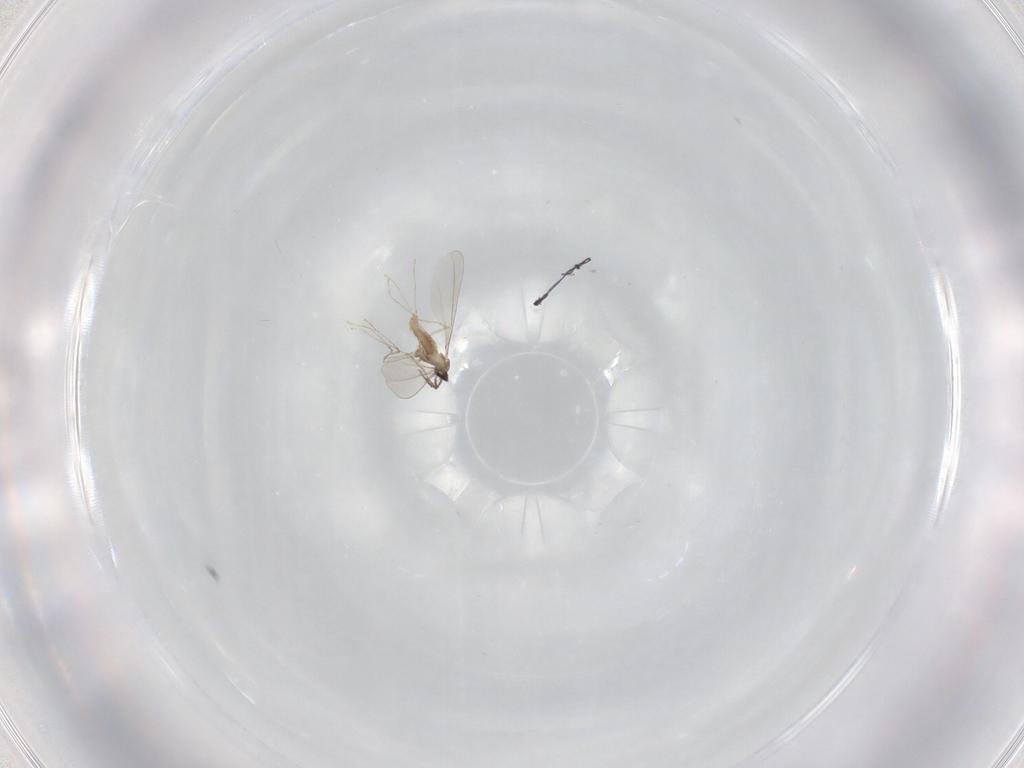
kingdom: Animalia
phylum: Arthropoda
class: Insecta
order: Diptera
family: Cecidomyiidae
